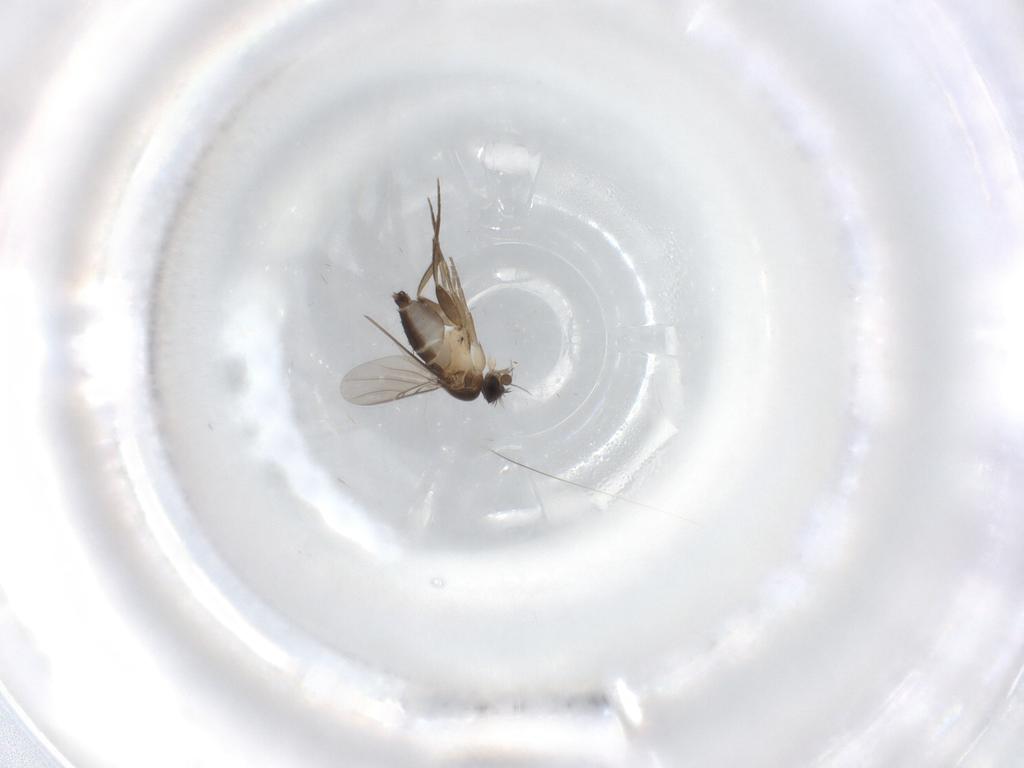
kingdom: Animalia
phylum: Arthropoda
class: Insecta
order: Diptera
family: Phoridae
